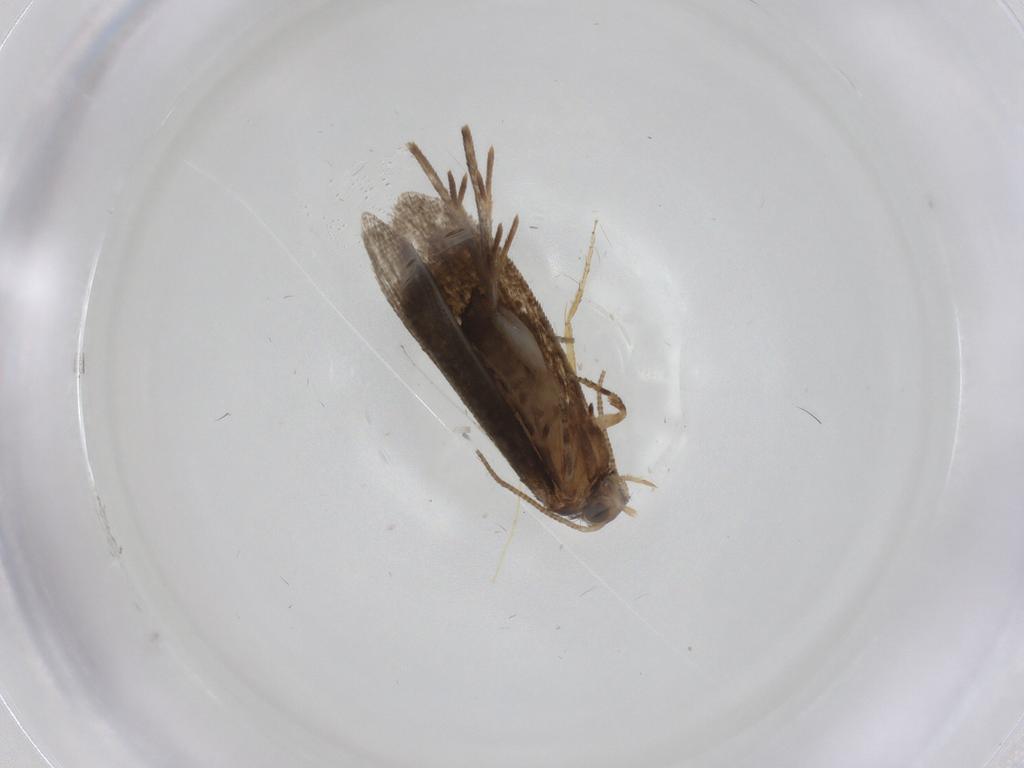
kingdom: Animalia
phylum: Arthropoda
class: Insecta
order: Lepidoptera
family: Tineidae
